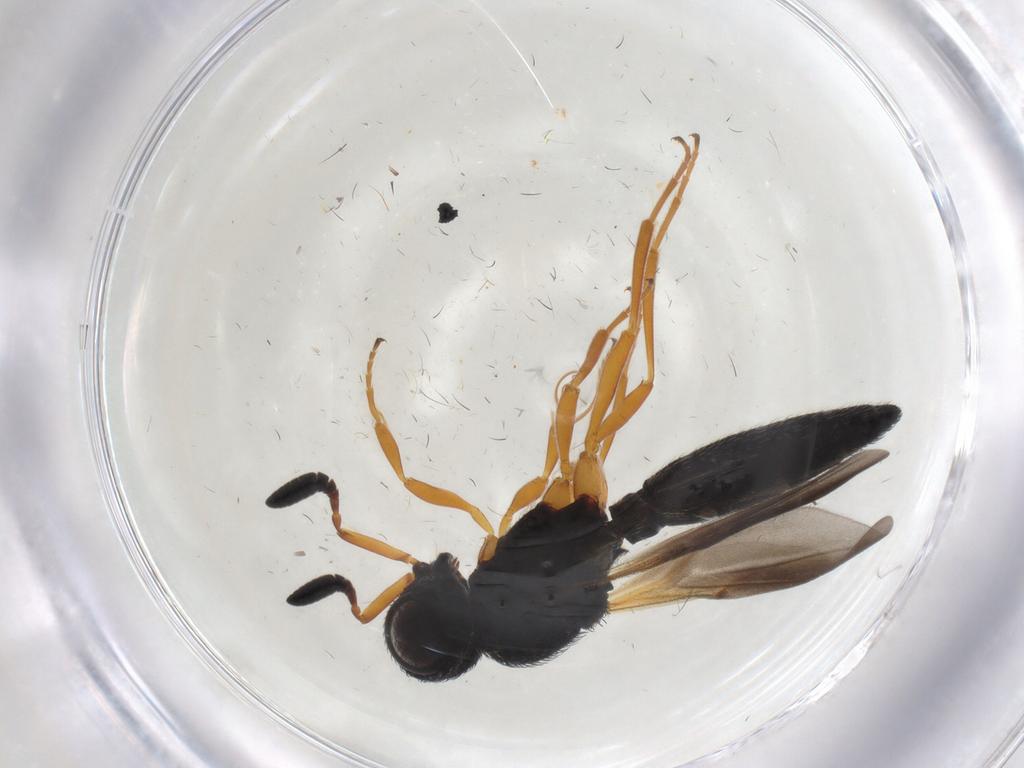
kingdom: Animalia
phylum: Arthropoda
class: Insecta
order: Hymenoptera
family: Scelionidae
